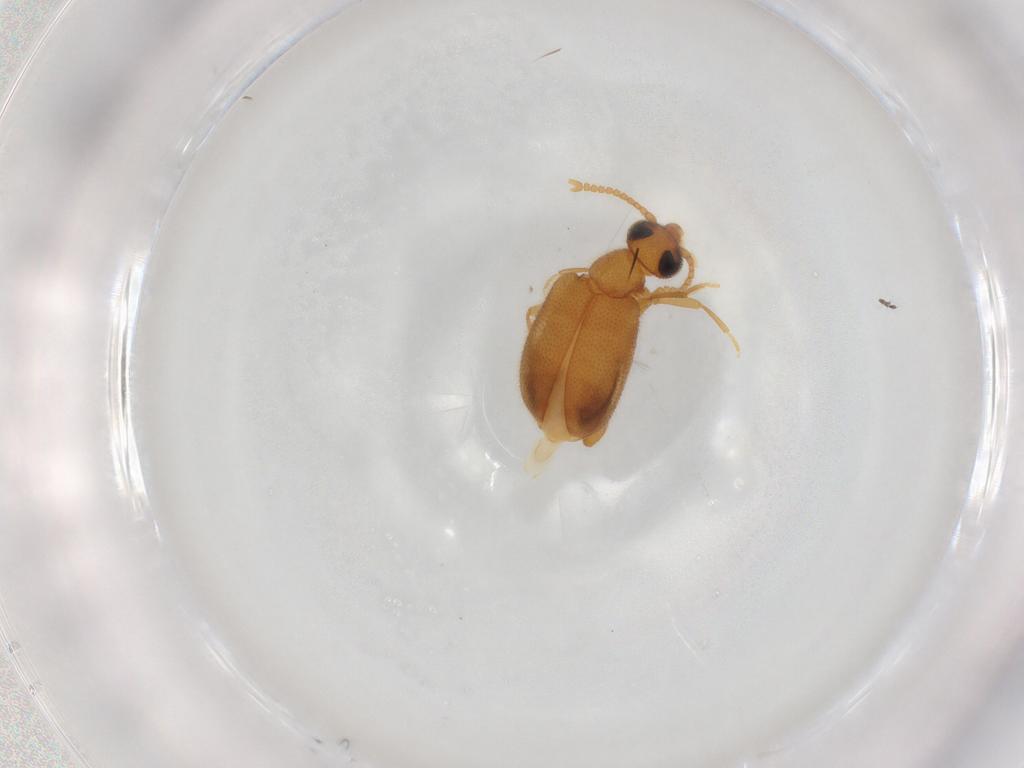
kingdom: Animalia
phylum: Arthropoda
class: Insecta
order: Coleoptera
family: Aderidae
